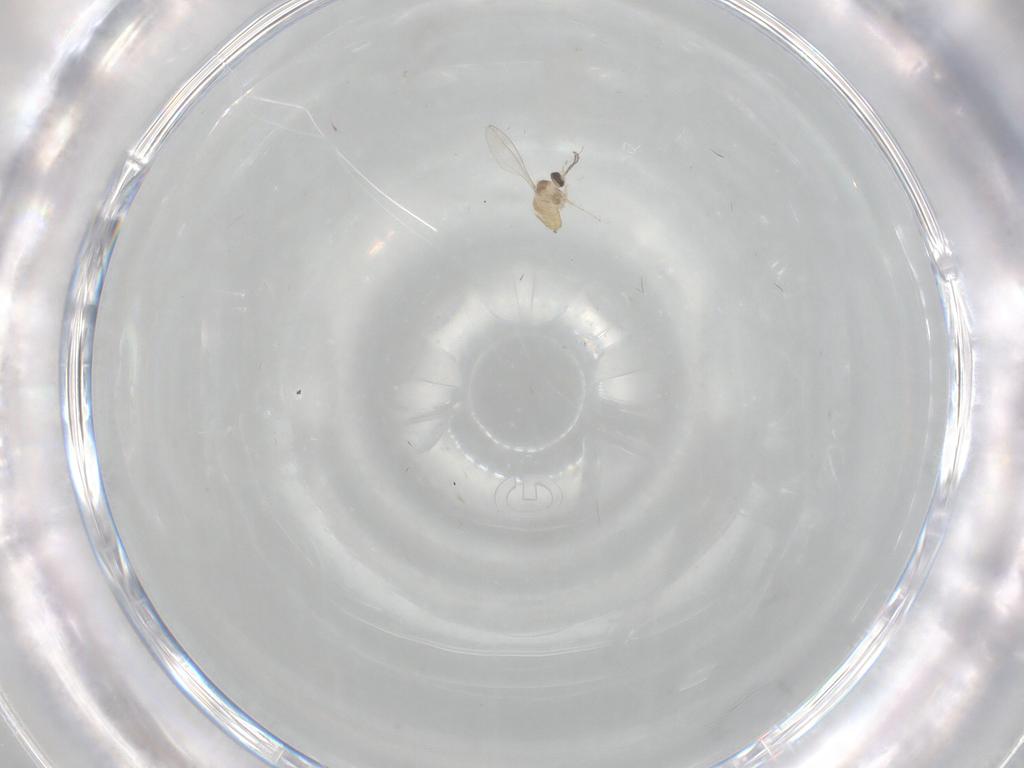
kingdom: Animalia
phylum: Arthropoda
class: Insecta
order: Diptera
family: Cecidomyiidae
